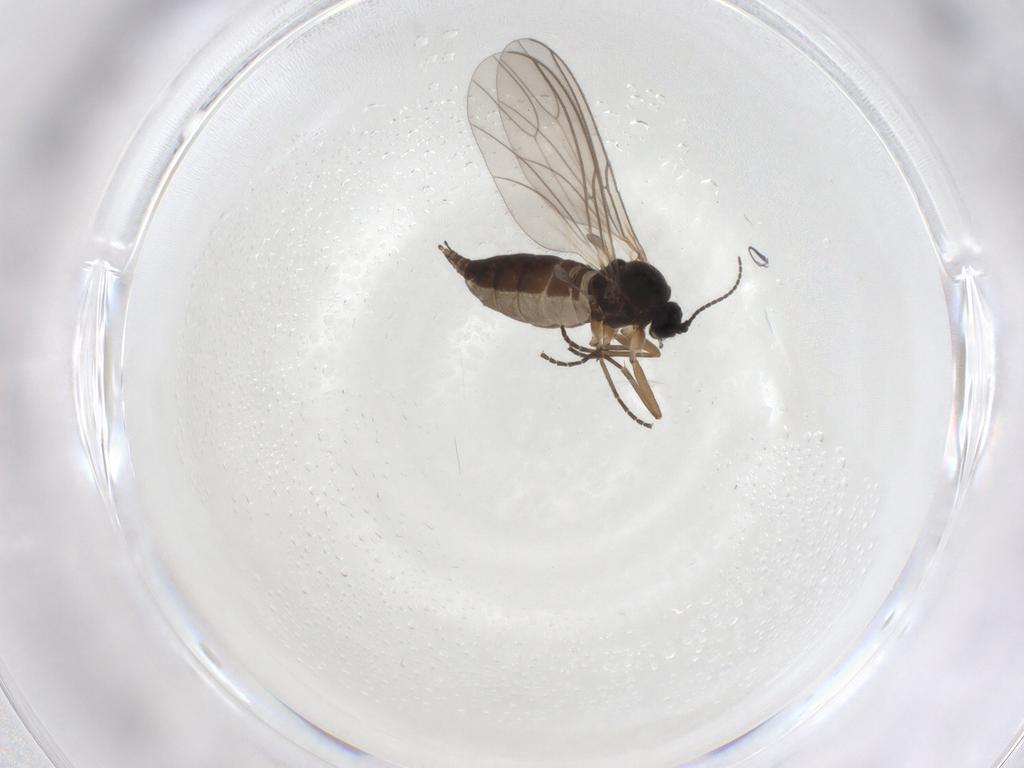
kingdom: Animalia
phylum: Arthropoda
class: Insecta
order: Diptera
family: Sciaridae
